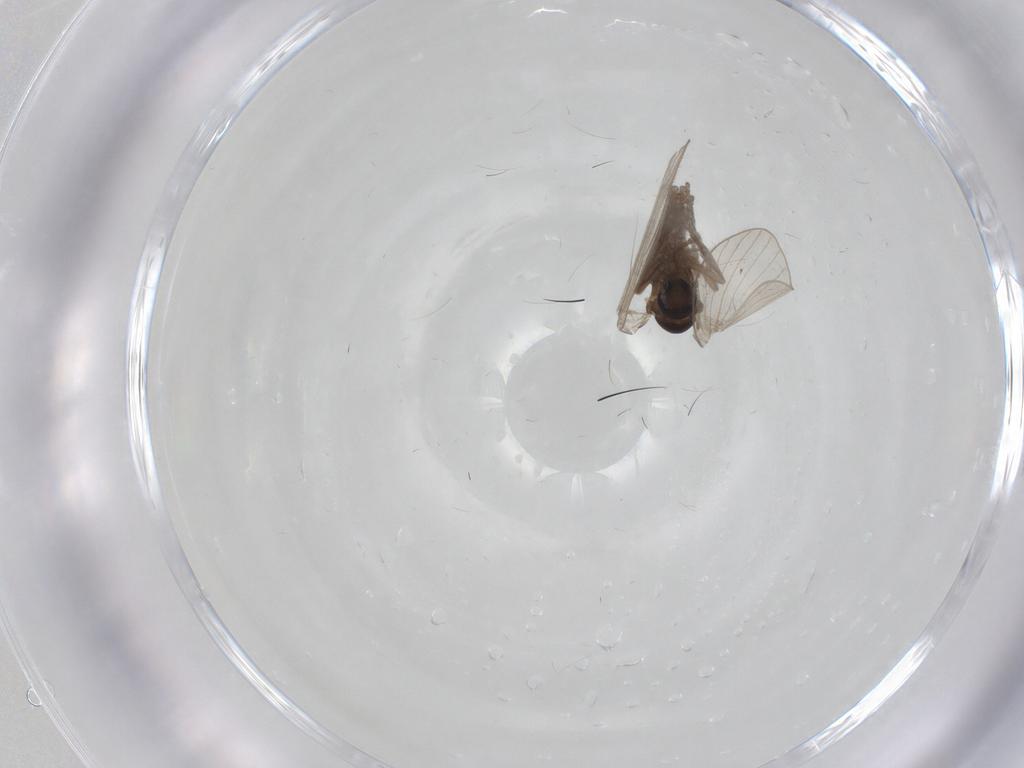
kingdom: Animalia
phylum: Arthropoda
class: Insecta
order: Diptera
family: Psychodidae
